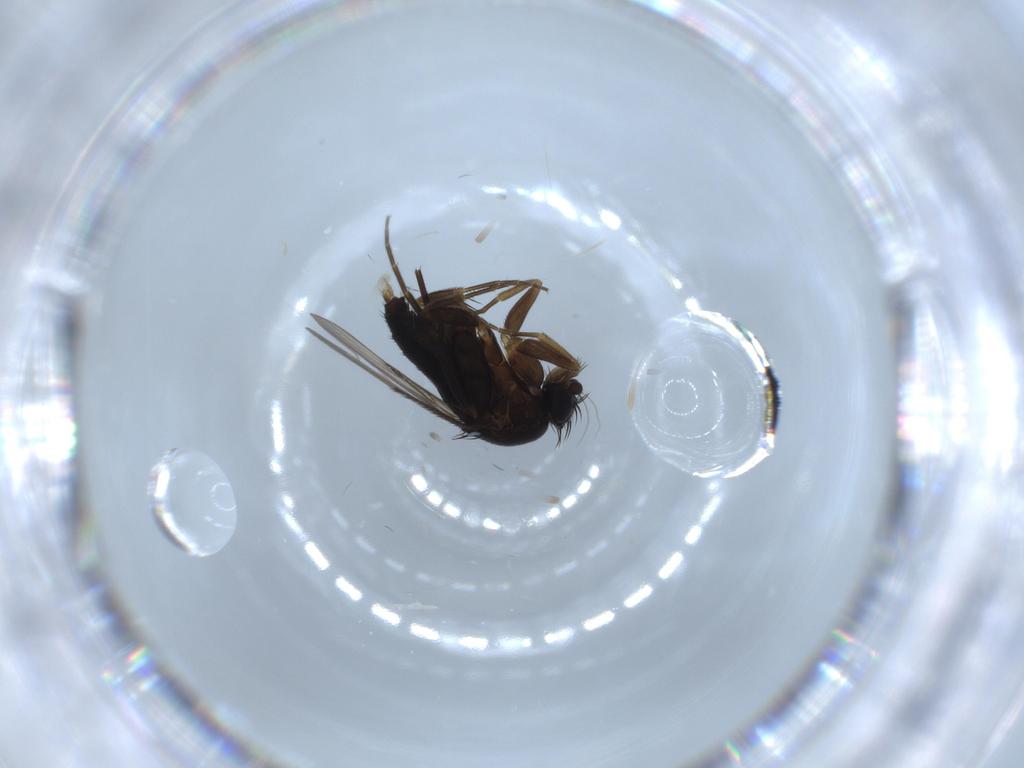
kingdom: Animalia
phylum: Arthropoda
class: Insecta
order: Diptera
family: Phoridae
